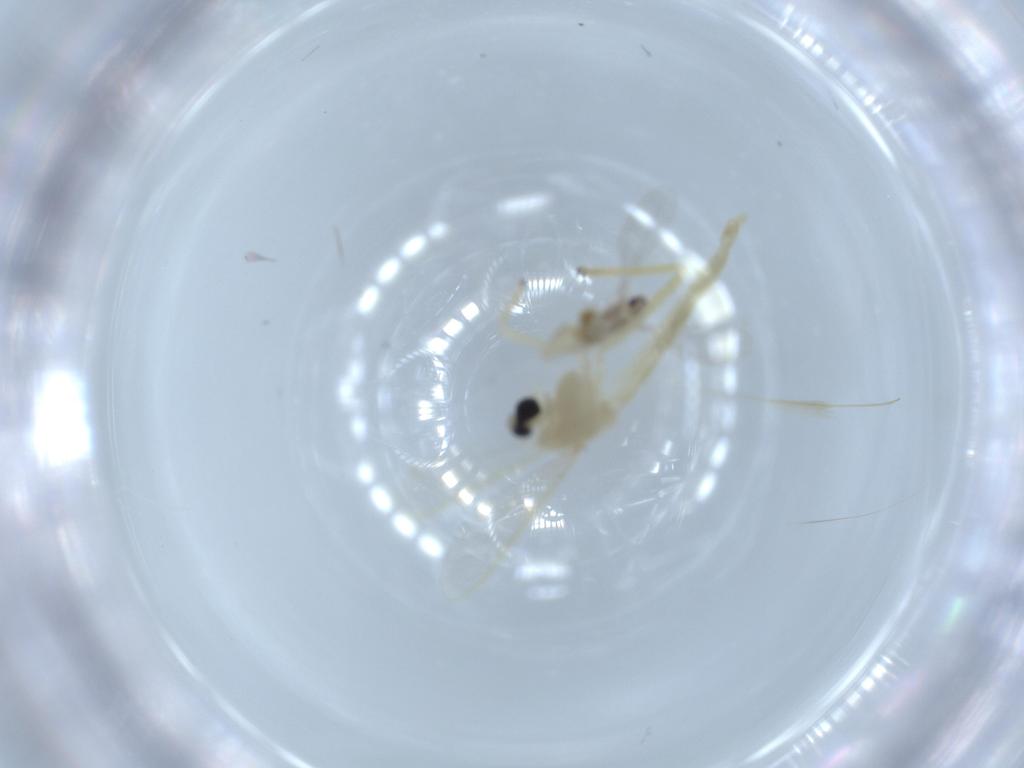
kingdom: Animalia
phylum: Arthropoda
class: Insecta
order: Diptera
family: Chironomidae
